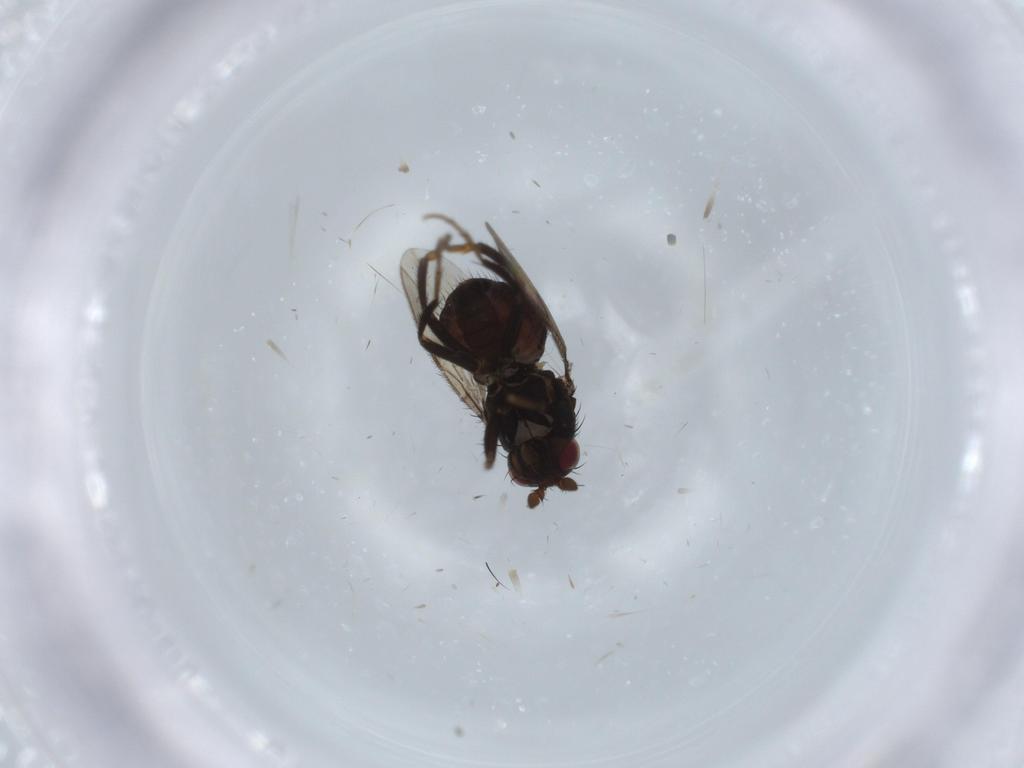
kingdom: Animalia
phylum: Arthropoda
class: Insecta
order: Diptera
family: Sphaeroceridae
